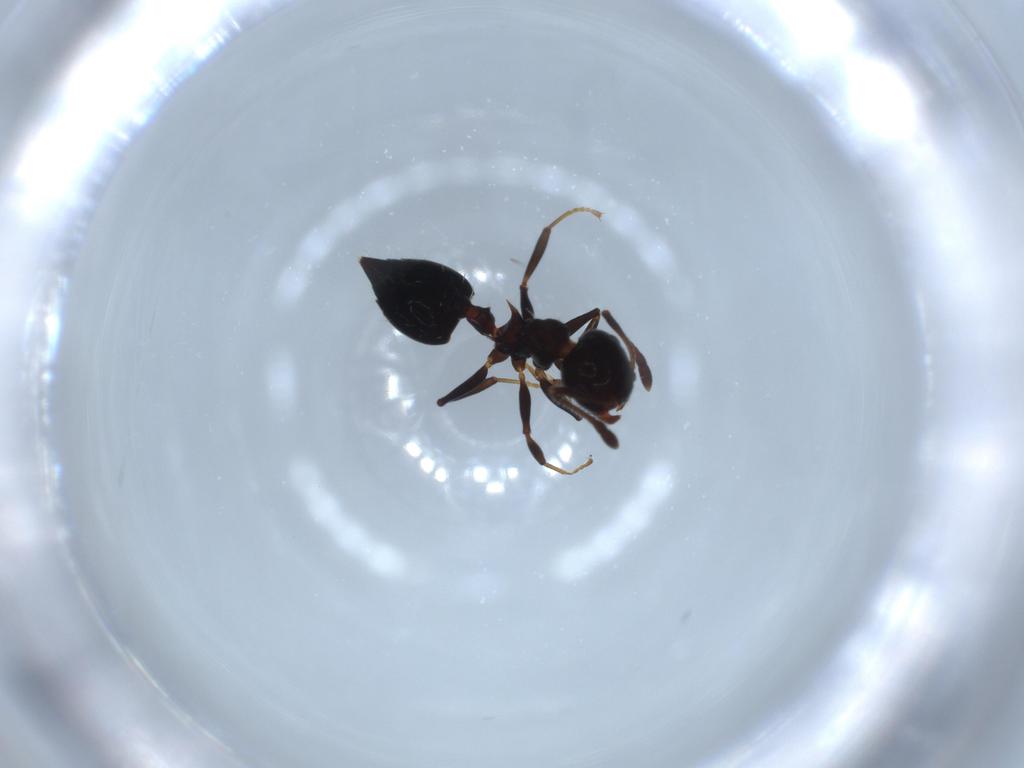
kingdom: Animalia
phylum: Arthropoda
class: Insecta
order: Hymenoptera
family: Formicidae
